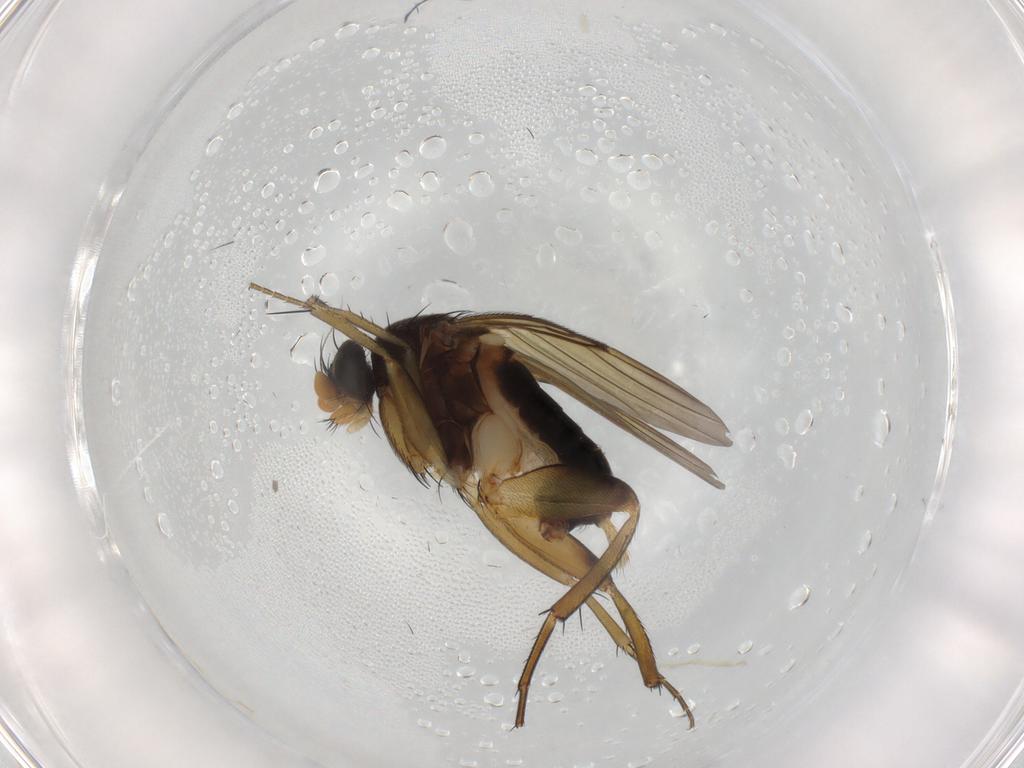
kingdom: Animalia
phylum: Arthropoda
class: Insecta
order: Diptera
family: Phoridae
